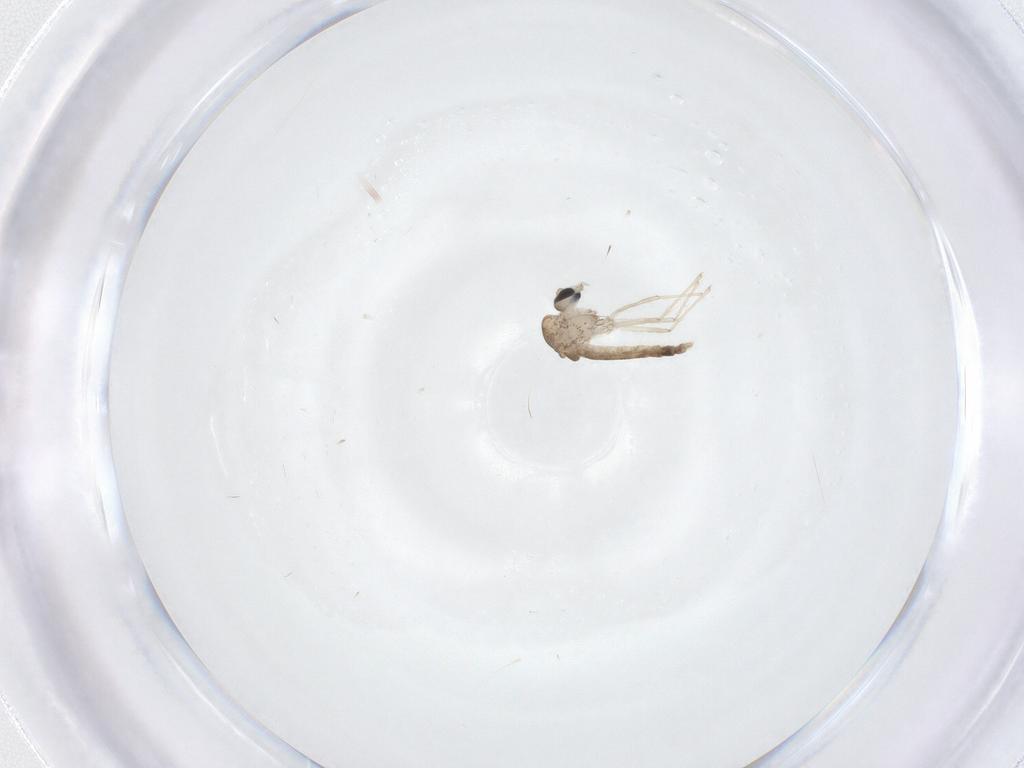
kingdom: Animalia
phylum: Arthropoda
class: Insecta
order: Diptera
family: Chironomidae
